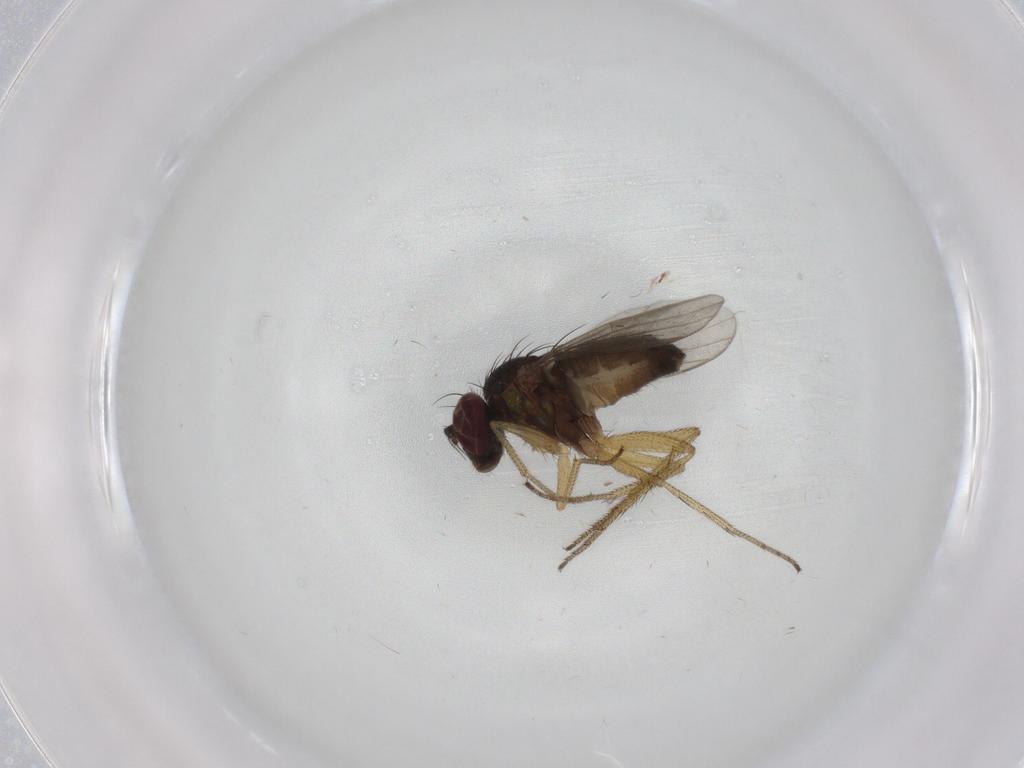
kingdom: Animalia
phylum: Arthropoda
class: Insecta
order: Diptera
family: Dolichopodidae
